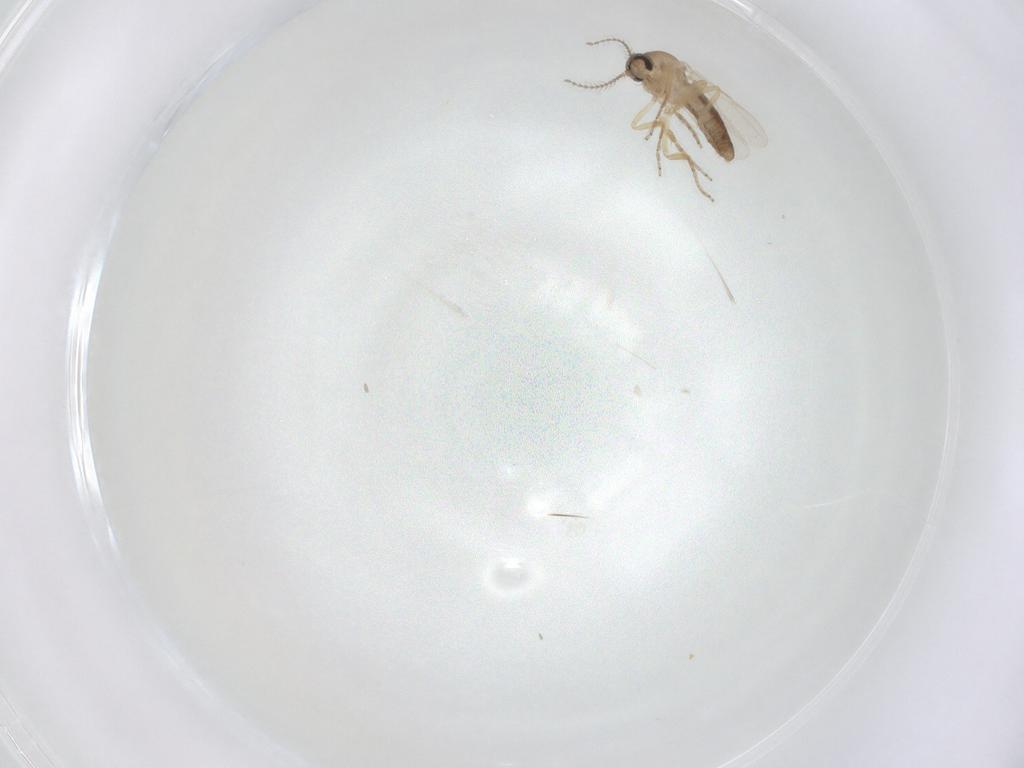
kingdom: Animalia
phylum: Arthropoda
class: Insecta
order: Diptera
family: Ceratopogonidae
